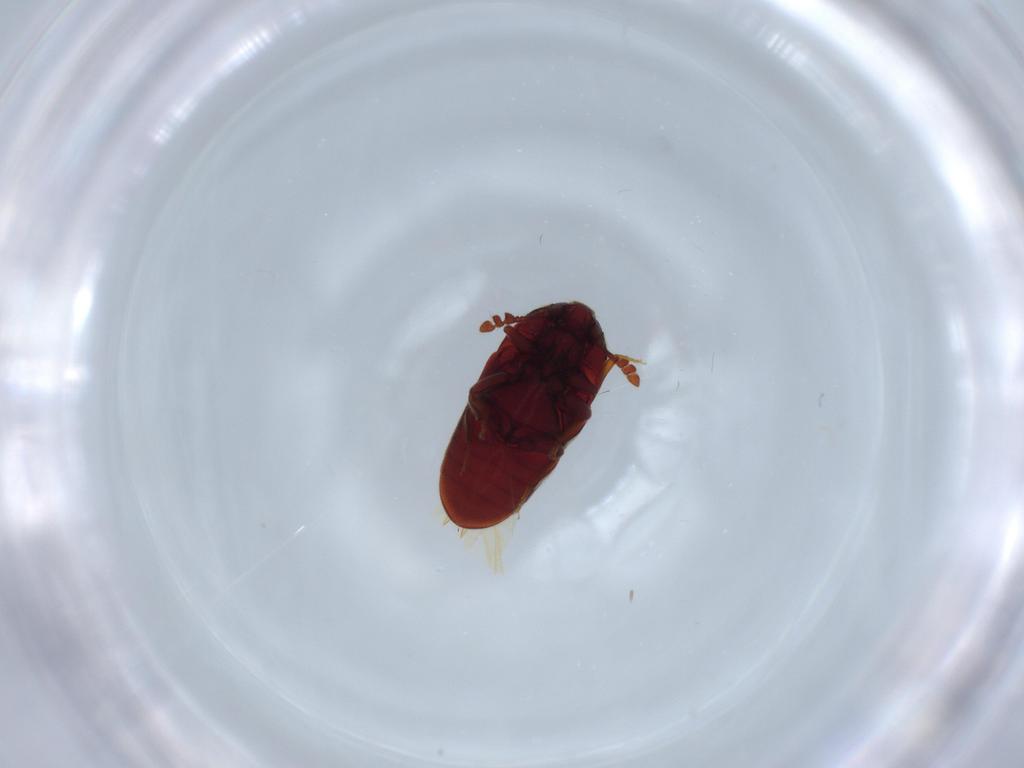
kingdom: Animalia
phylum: Arthropoda
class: Insecta
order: Coleoptera
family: Throscidae
